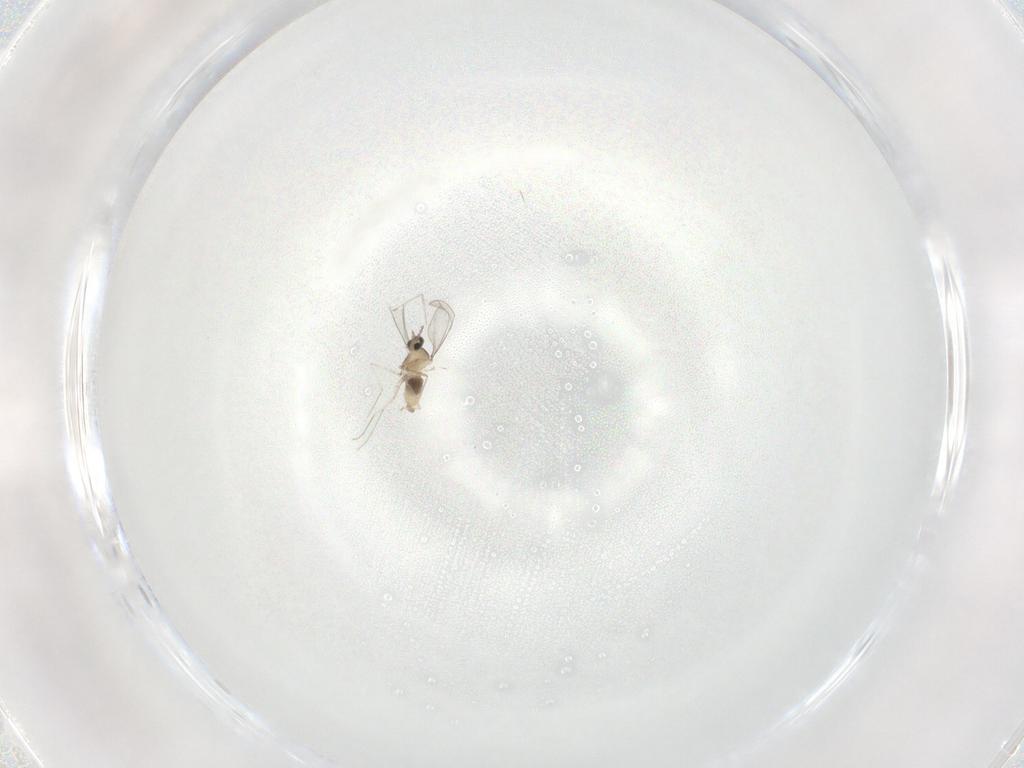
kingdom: Animalia
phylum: Arthropoda
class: Insecta
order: Diptera
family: Cecidomyiidae
